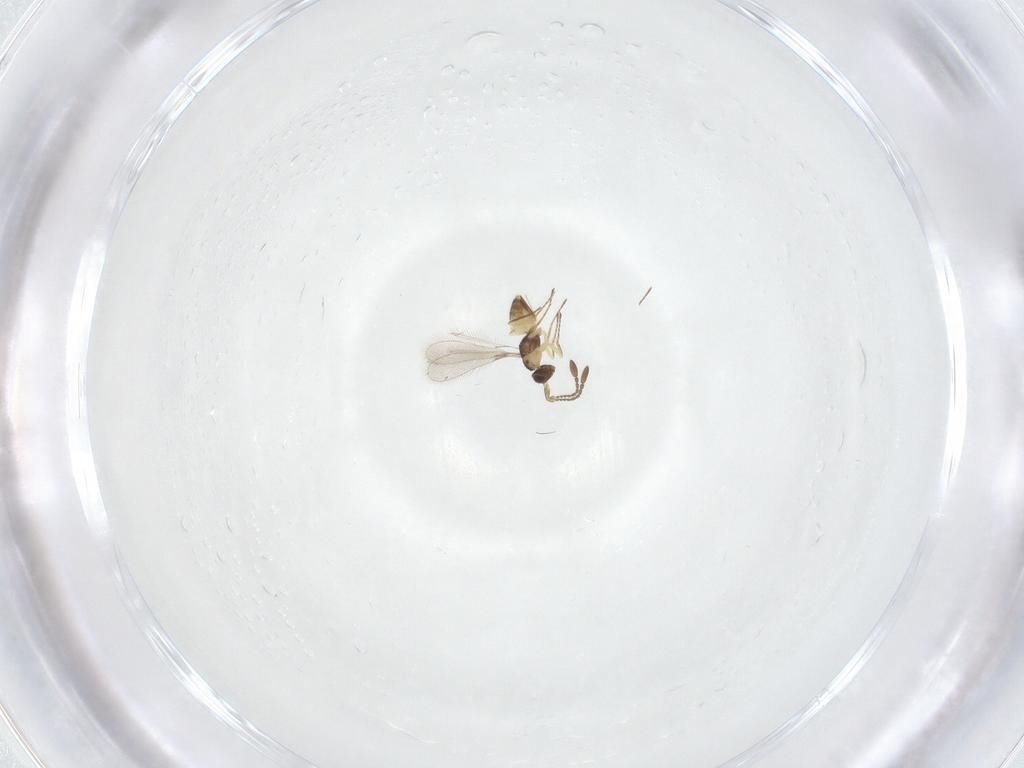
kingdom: Animalia
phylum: Arthropoda
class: Insecta
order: Hymenoptera
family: Mymaridae
